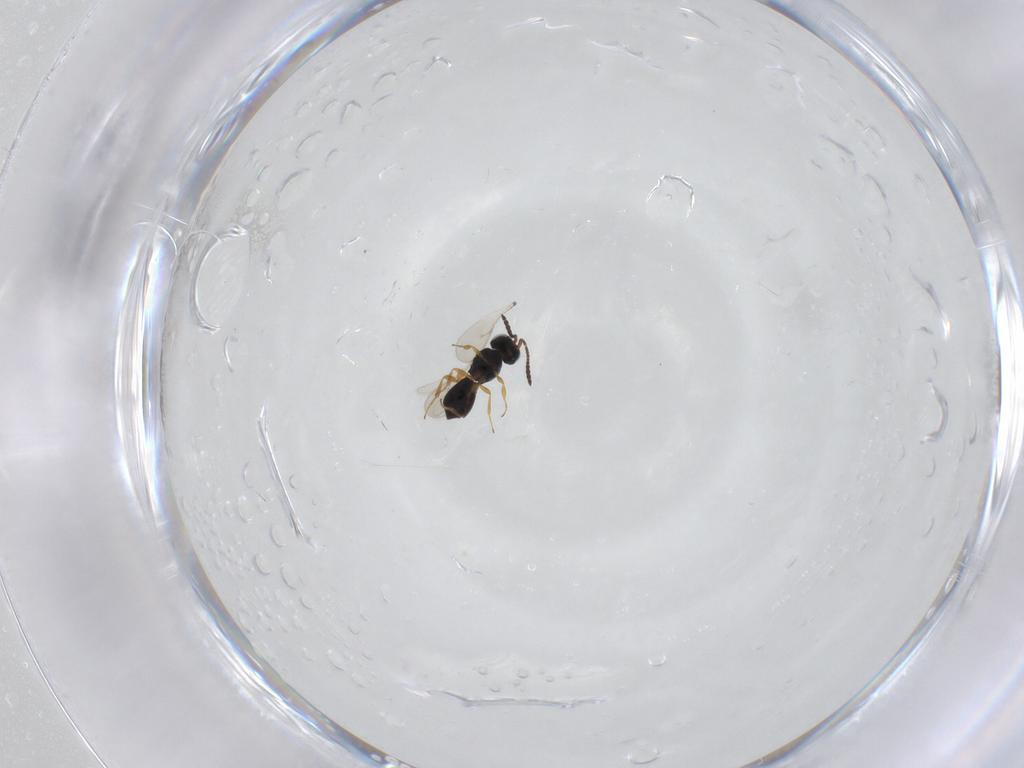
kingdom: Animalia
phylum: Arthropoda
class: Insecta
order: Hymenoptera
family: Scelionidae
